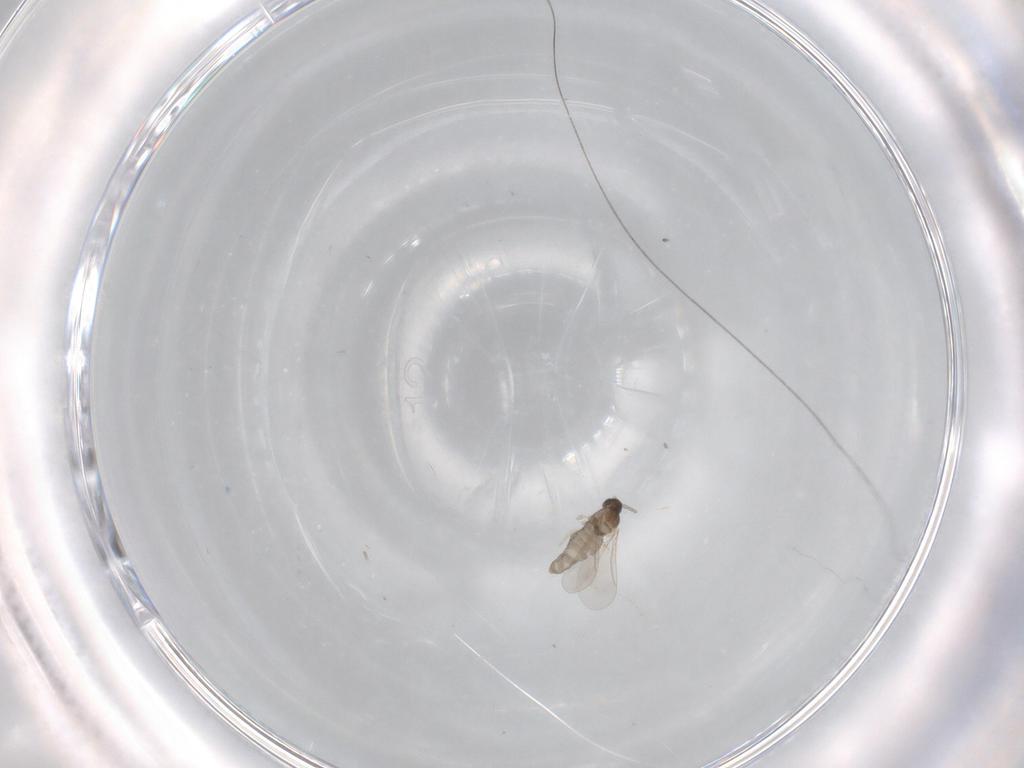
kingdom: Animalia
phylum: Arthropoda
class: Insecta
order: Diptera
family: Cecidomyiidae
